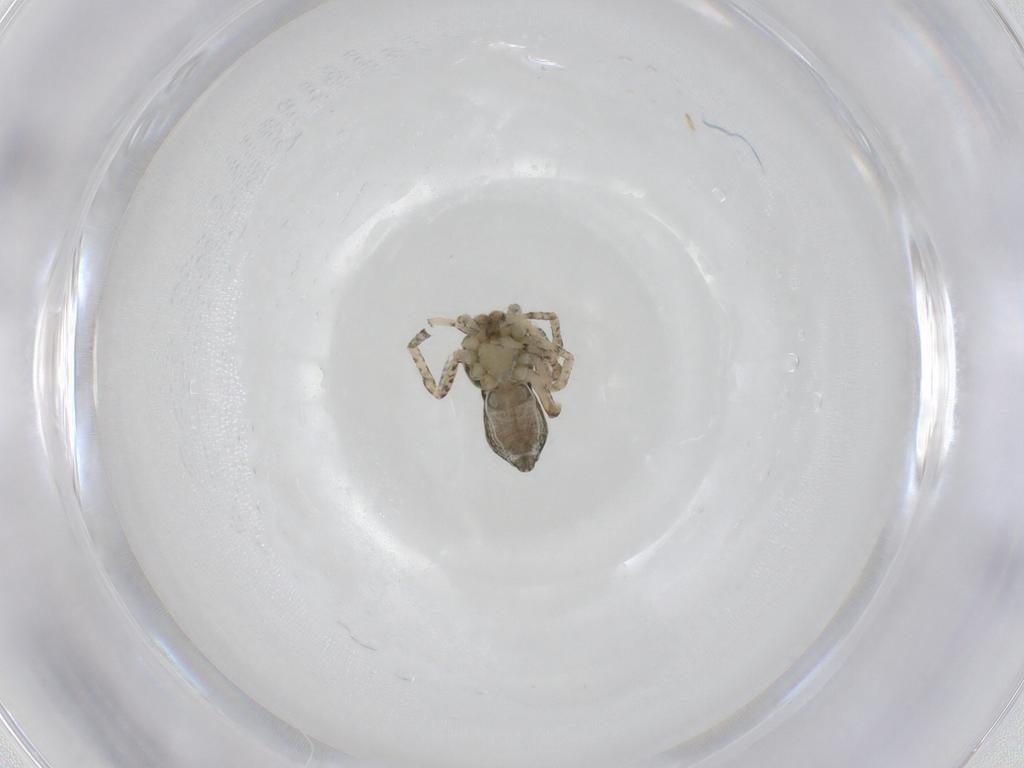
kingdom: Animalia
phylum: Arthropoda
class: Arachnida
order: Araneae
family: Thomisidae
